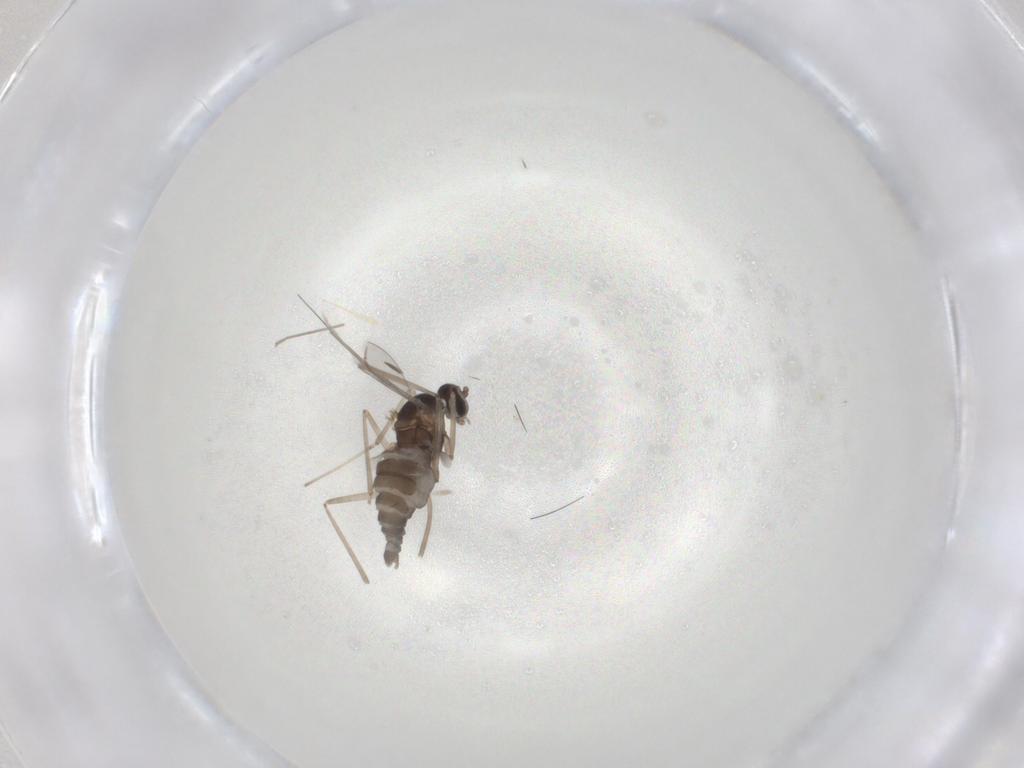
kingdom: Animalia
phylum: Arthropoda
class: Insecta
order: Diptera
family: Cecidomyiidae
